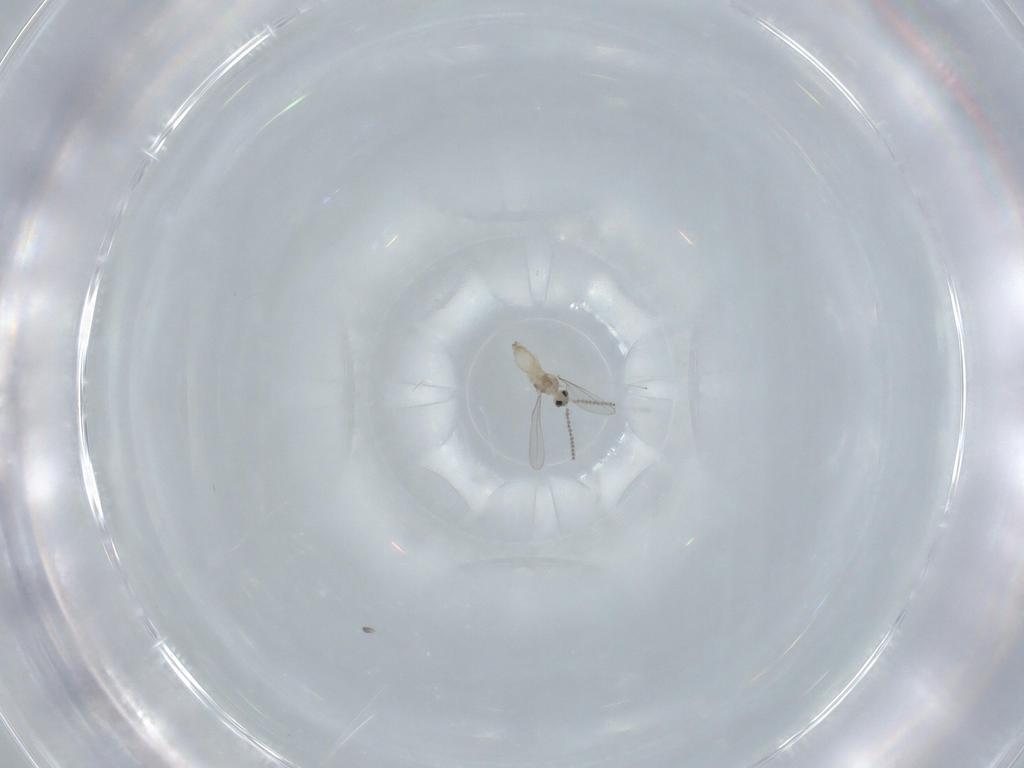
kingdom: Animalia
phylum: Arthropoda
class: Insecta
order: Diptera
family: Cecidomyiidae
